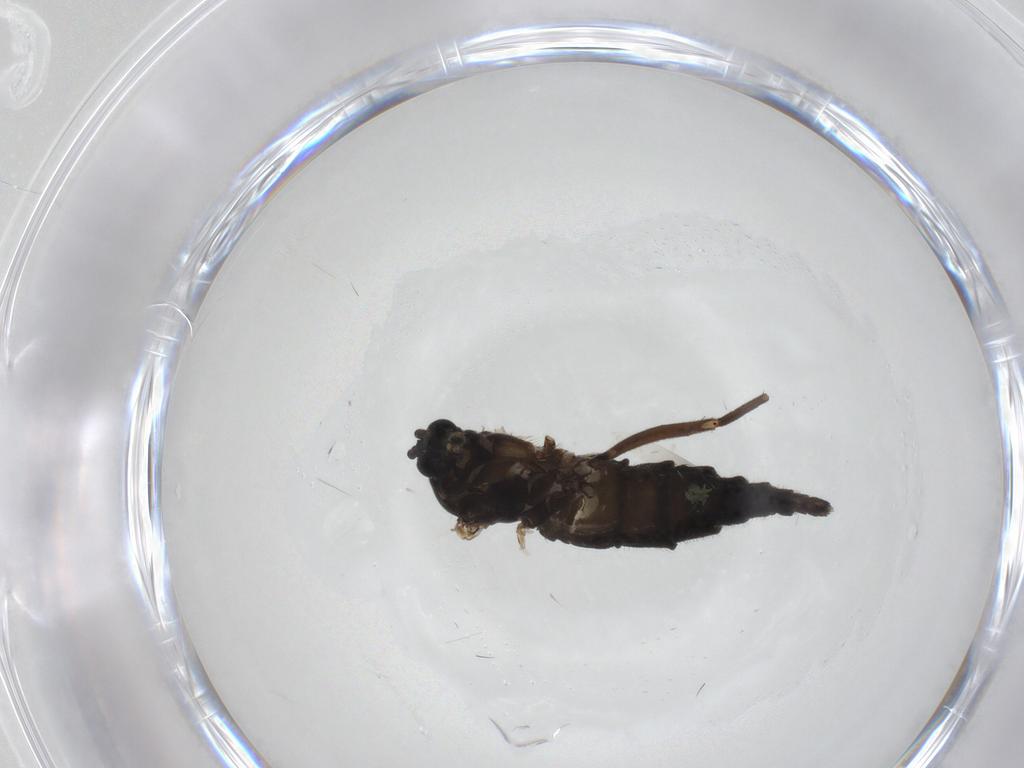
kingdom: Animalia
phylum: Arthropoda
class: Insecta
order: Diptera
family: Sciaridae
